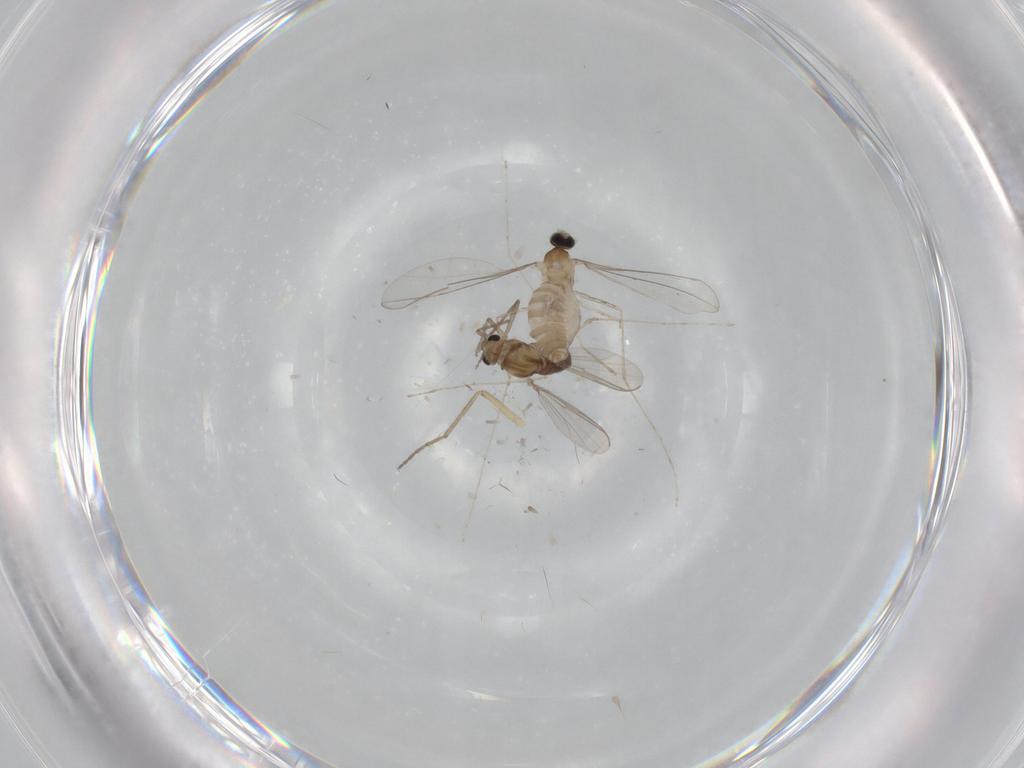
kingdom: Animalia
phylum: Arthropoda
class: Insecta
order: Diptera
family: Chironomidae
